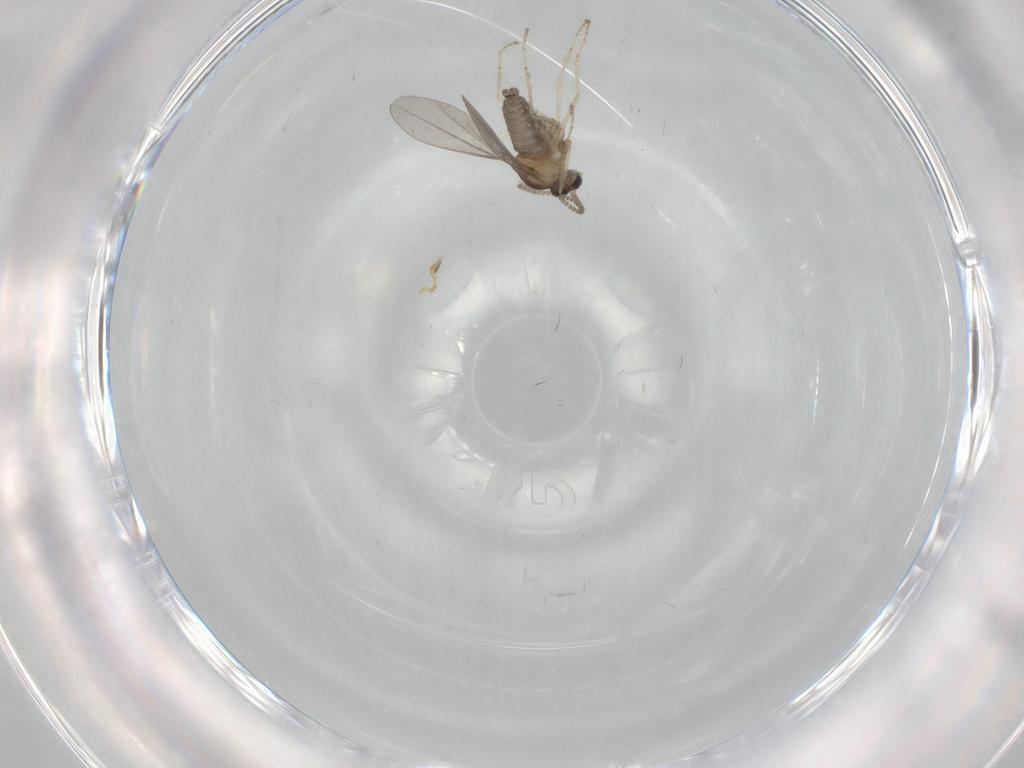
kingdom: Animalia
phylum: Arthropoda
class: Insecta
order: Diptera
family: Cecidomyiidae
